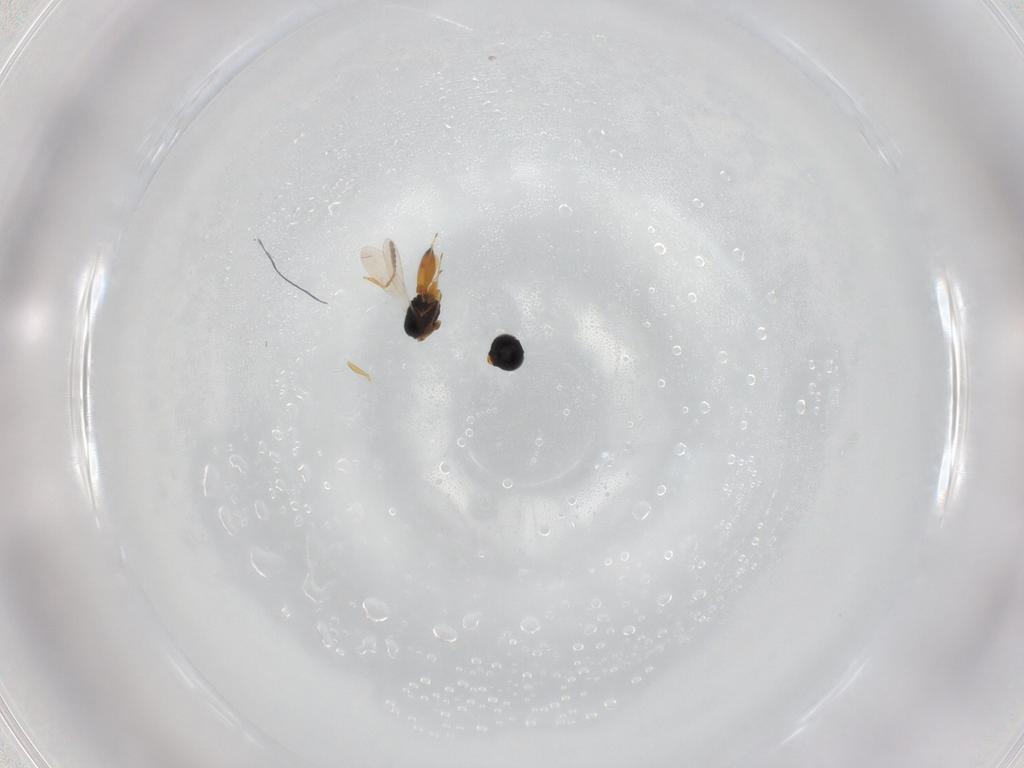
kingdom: Animalia
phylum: Arthropoda
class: Insecta
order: Hymenoptera
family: Scelionidae
